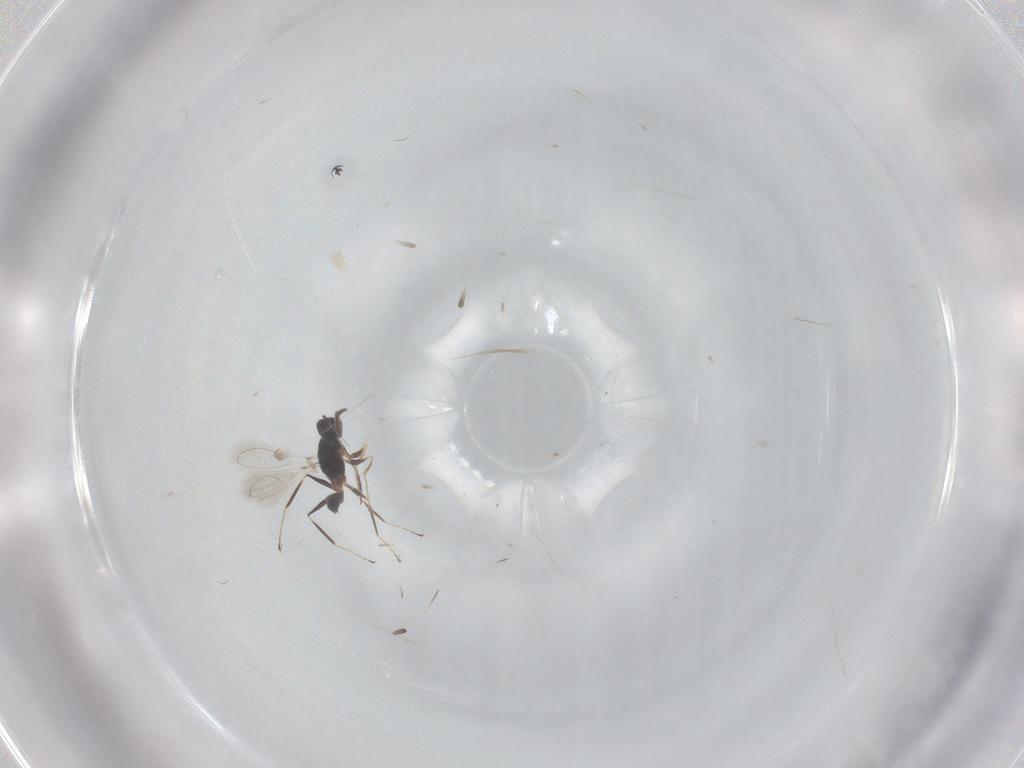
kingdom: Animalia
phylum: Arthropoda
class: Insecta
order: Hymenoptera
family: Mymaridae
